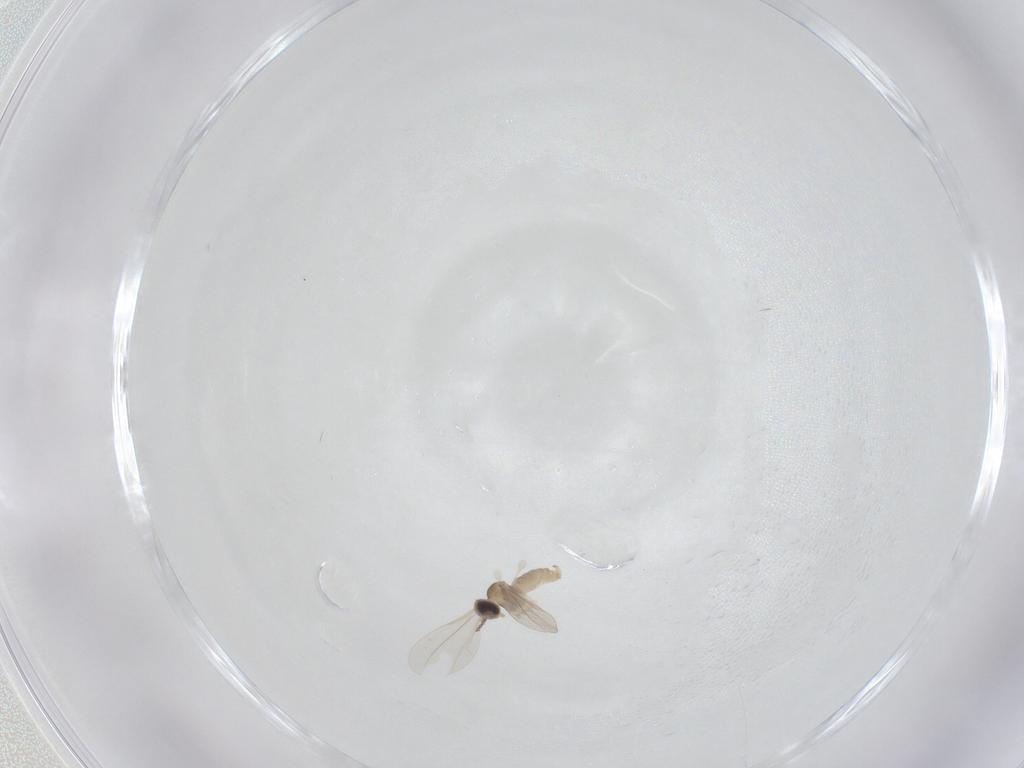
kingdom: Animalia
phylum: Arthropoda
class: Insecta
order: Diptera
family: Cecidomyiidae
